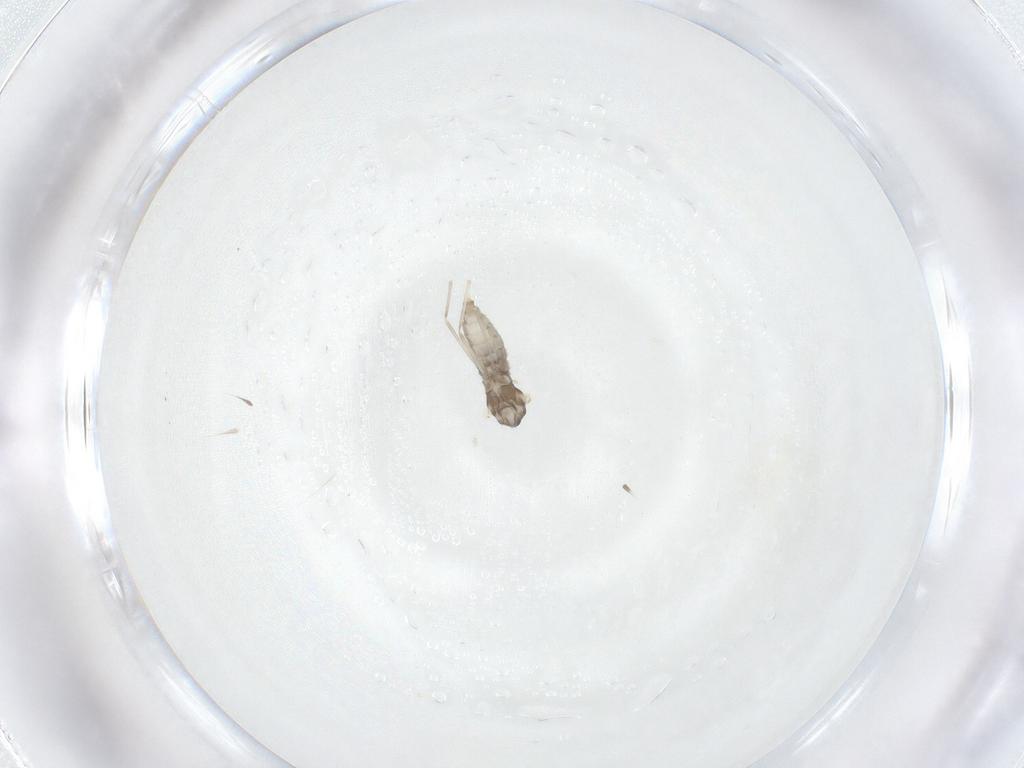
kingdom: Animalia
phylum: Arthropoda
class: Insecta
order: Diptera
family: Cecidomyiidae
